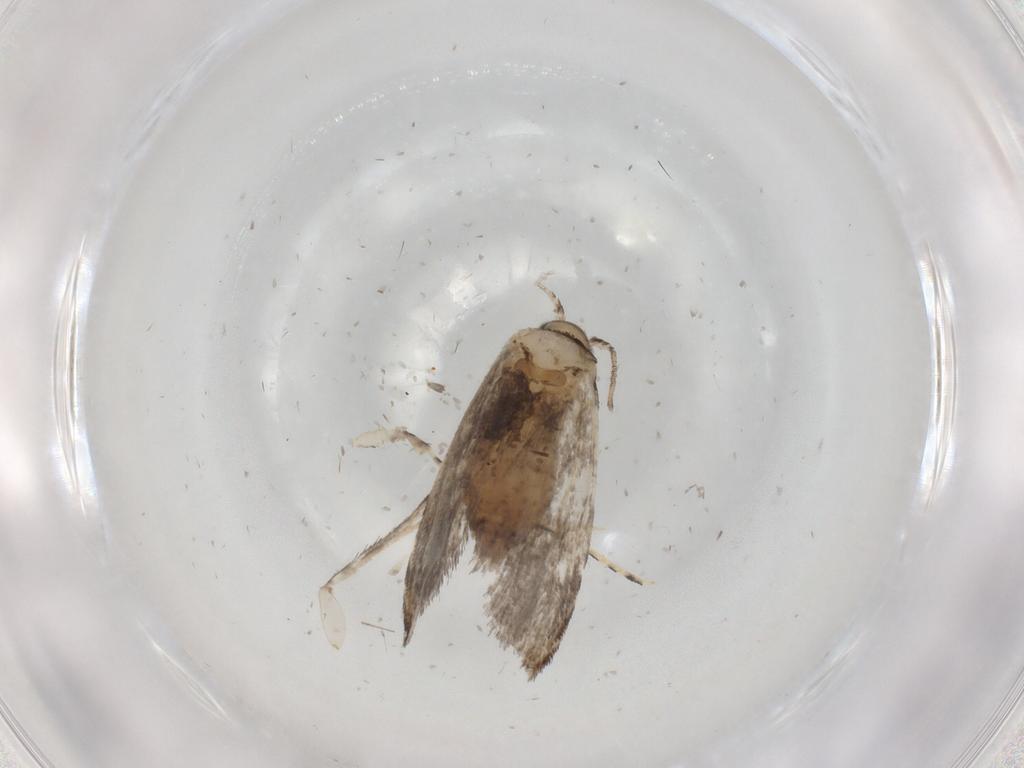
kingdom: Animalia
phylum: Arthropoda
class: Insecta
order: Lepidoptera
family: Tineidae
